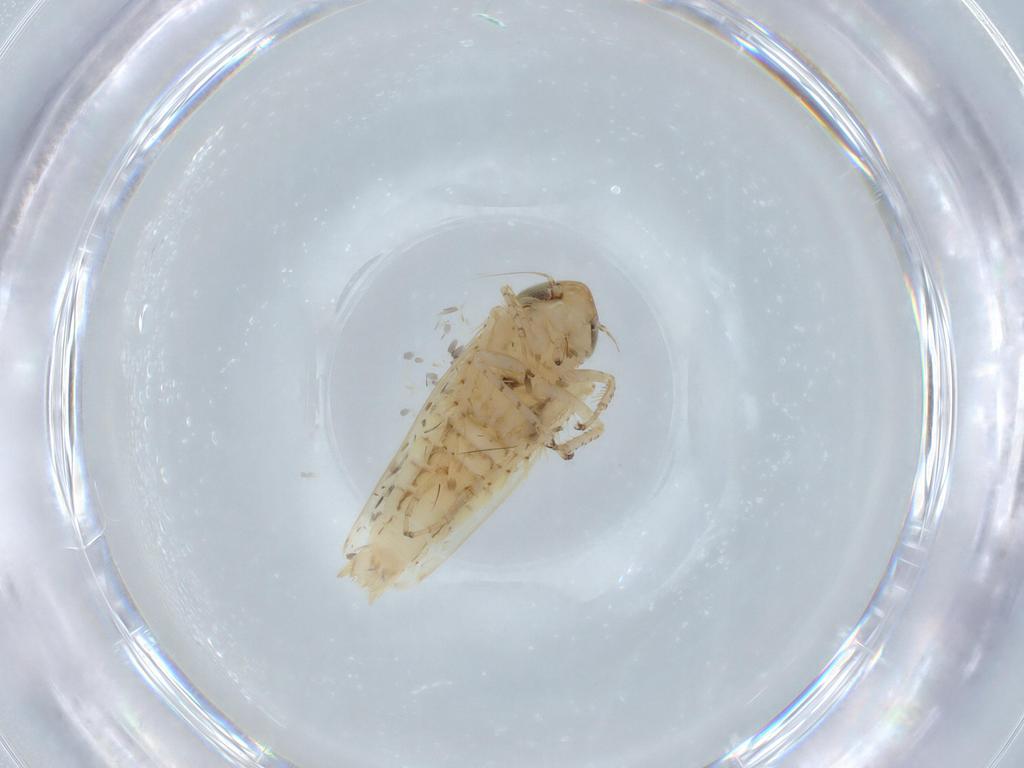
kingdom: Animalia
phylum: Arthropoda
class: Insecta
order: Hemiptera
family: Cicadellidae
